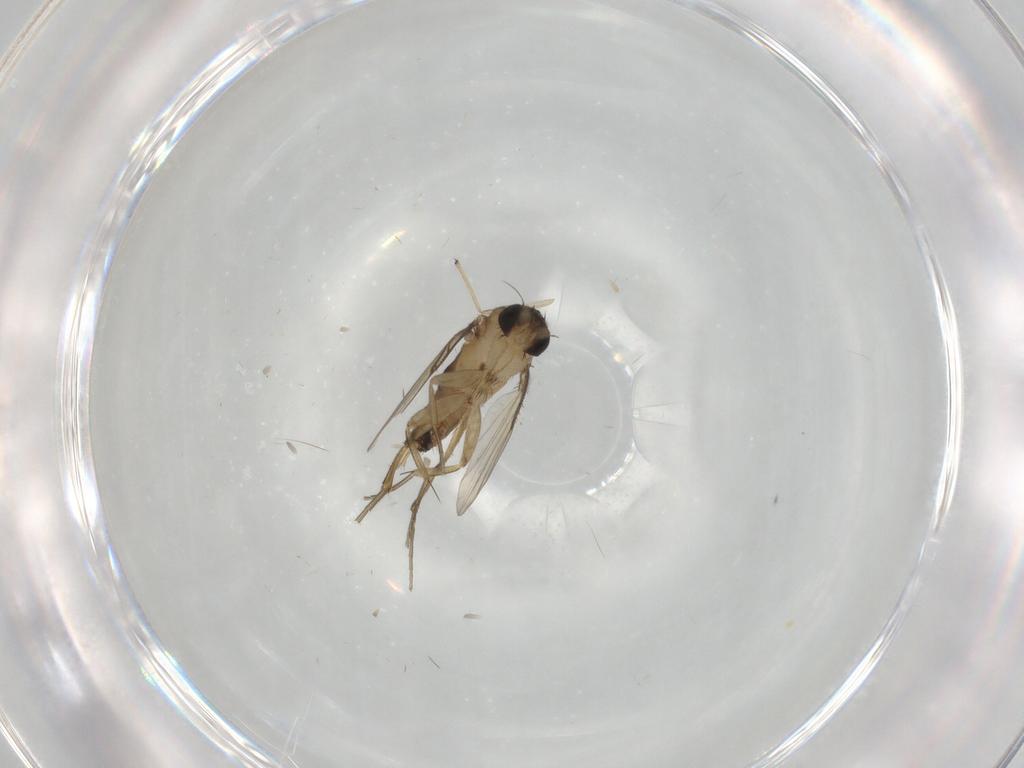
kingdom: Animalia
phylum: Arthropoda
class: Insecta
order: Diptera
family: Phoridae
